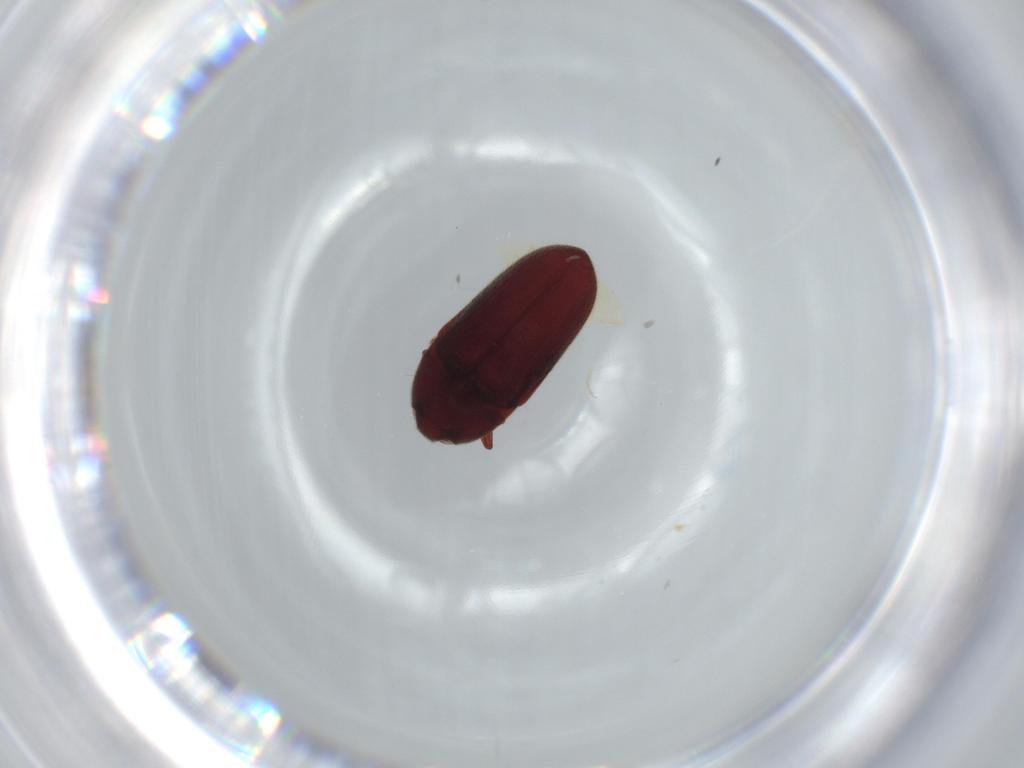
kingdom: Animalia
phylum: Arthropoda
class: Insecta
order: Coleoptera
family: Throscidae
